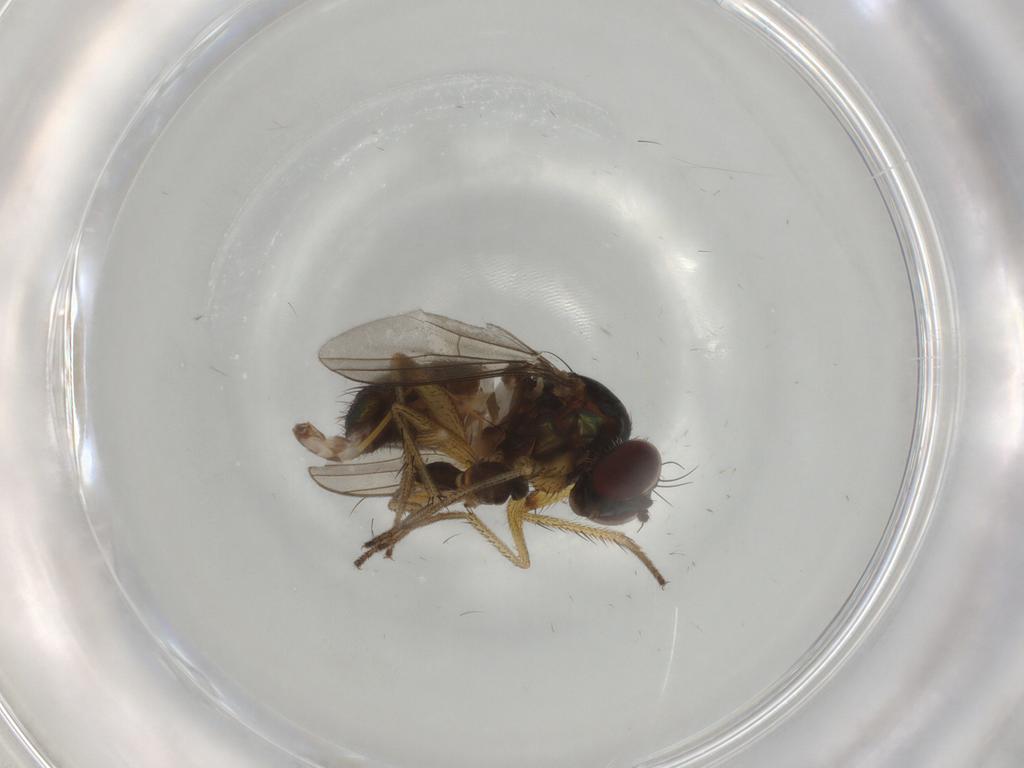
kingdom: Animalia
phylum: Arthropoda
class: Insecta
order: Diptera
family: Dolichopodidae
